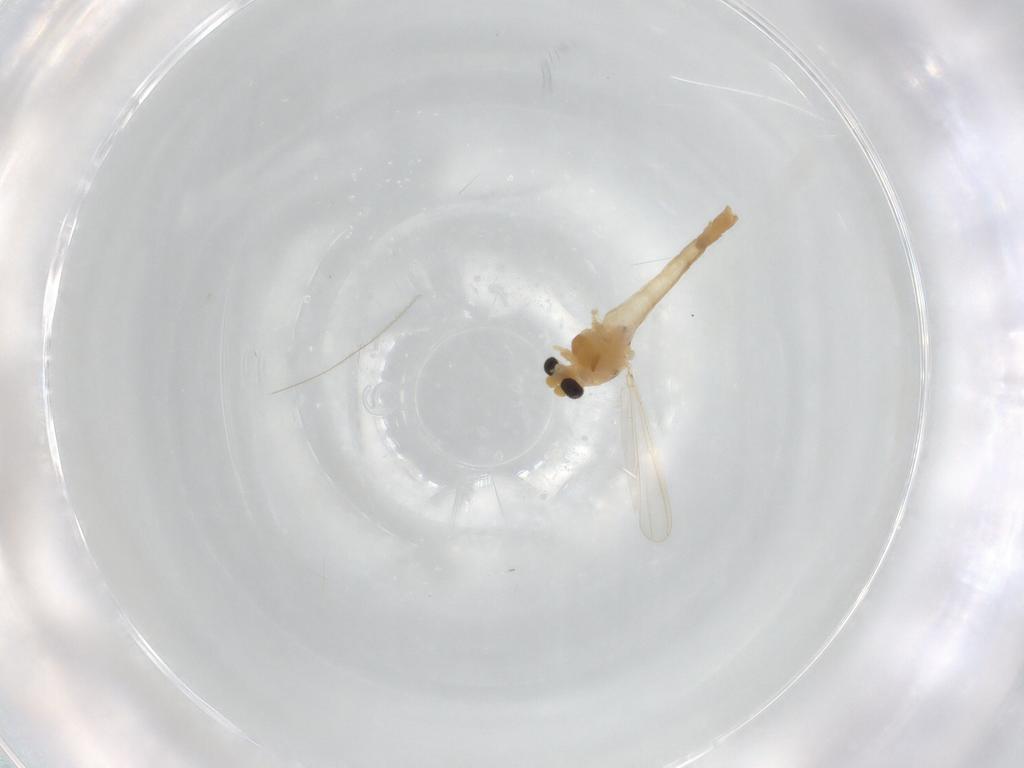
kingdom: Animalia
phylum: Arthropoda
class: Insecta
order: Diptera
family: Chironomidae
